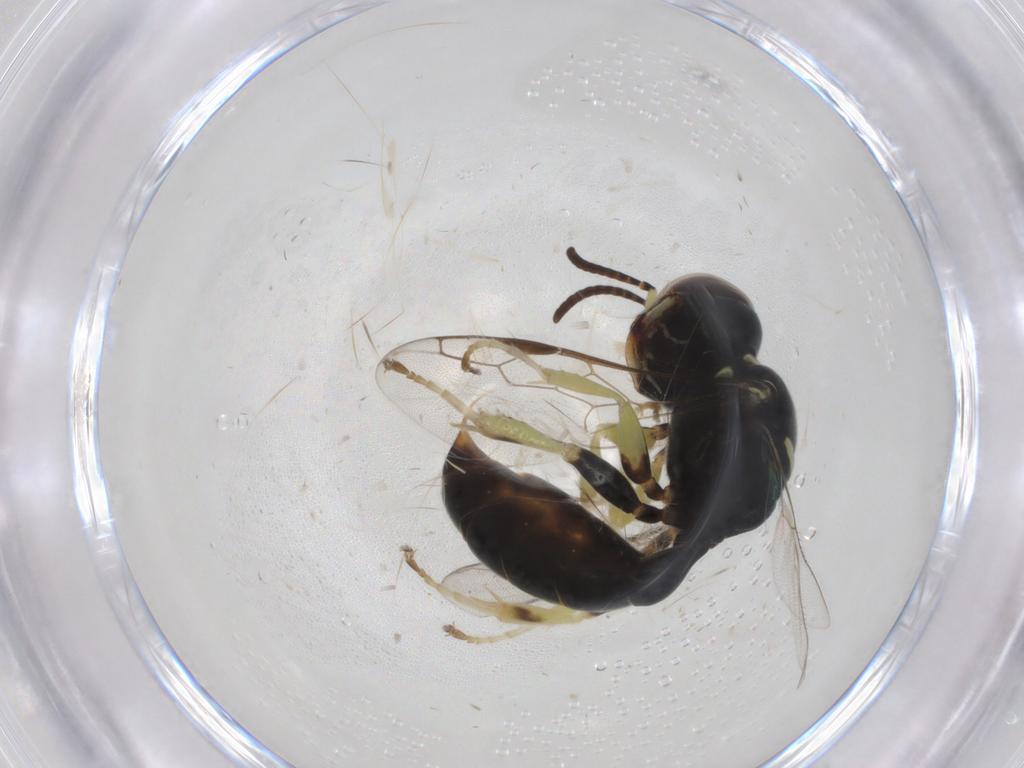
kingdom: Animalia
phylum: Arthropoda
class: Insecta
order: Hymenoptera
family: Crabronidae
